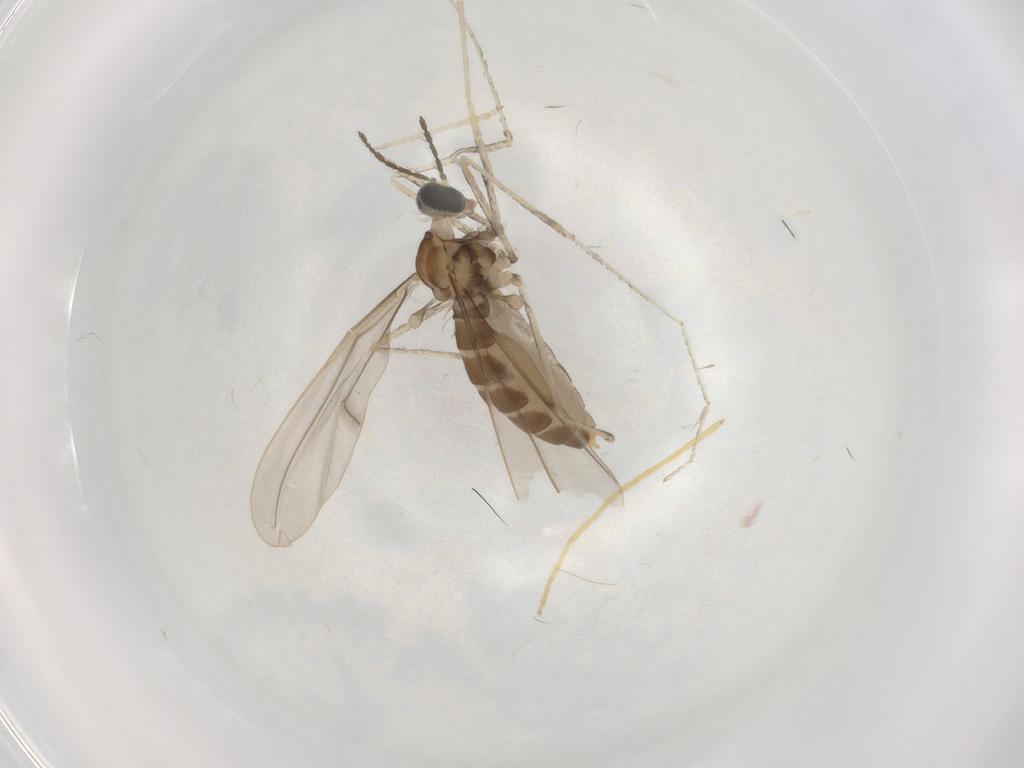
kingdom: Animalia
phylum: Arthropoda
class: Insecta
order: Diptera
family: Cecidomyiidae
